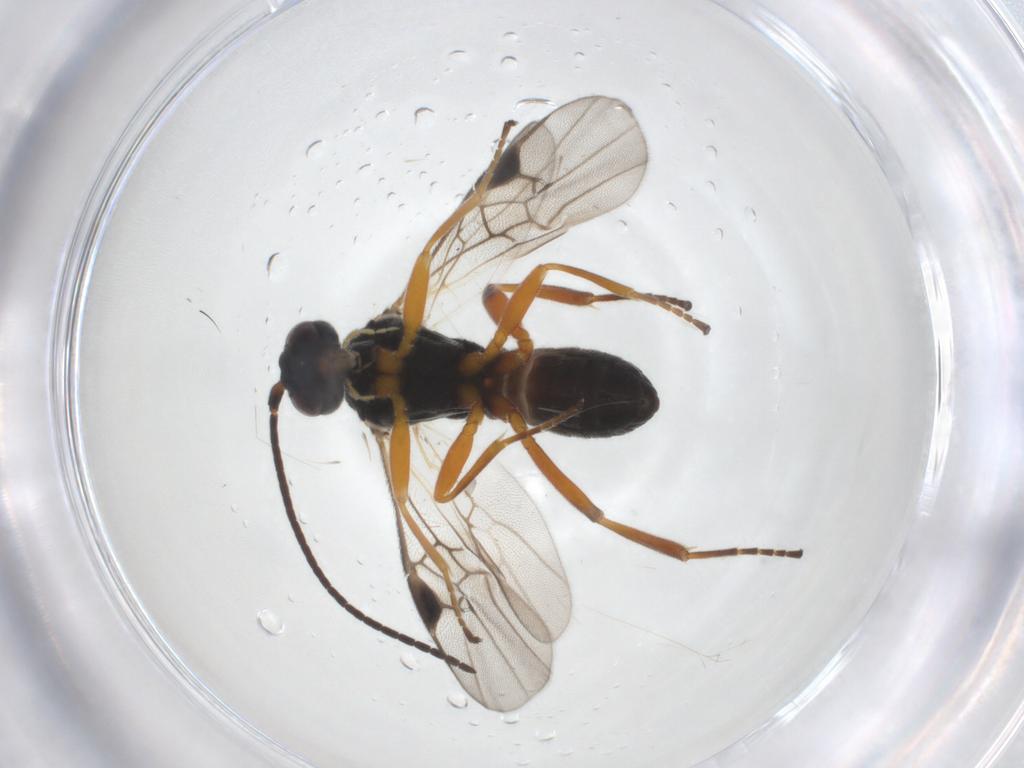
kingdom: Animalia
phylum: Arthropoda
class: Insecta
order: Hymenoptera
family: Braconidae
